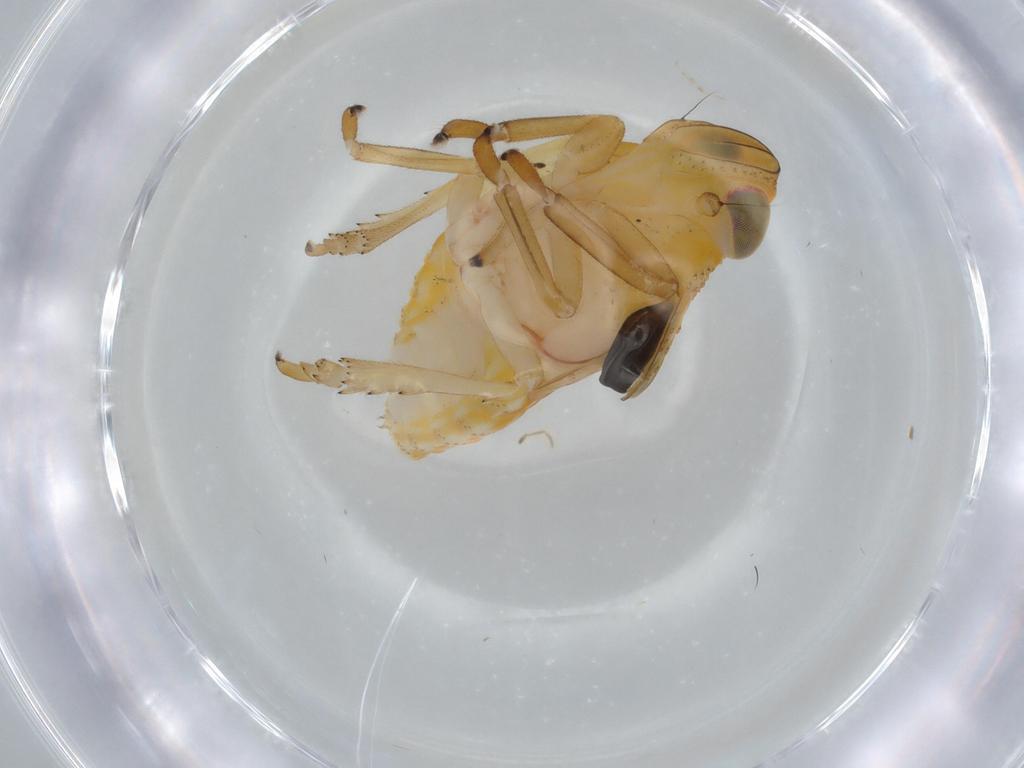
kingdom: Animalia
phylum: Arthropoda
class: Insecta
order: Hemiptera
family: Issidae
